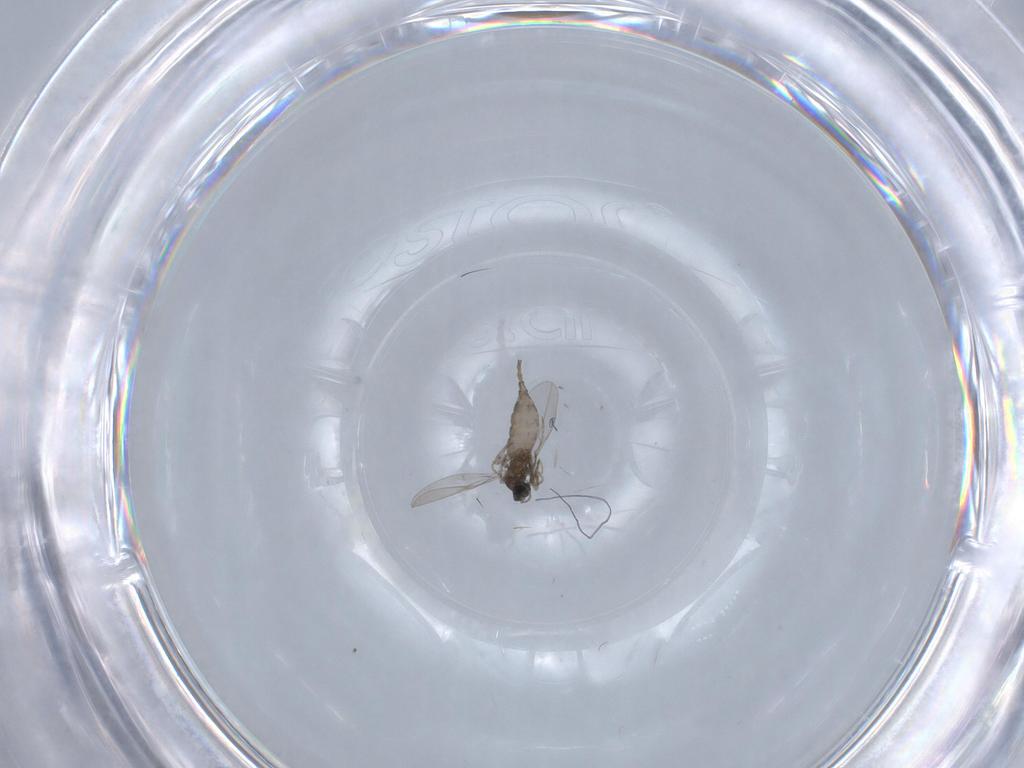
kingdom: Animalia
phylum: Arthropoda
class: Insecta
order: Diptera
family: Cecidomyiidae
